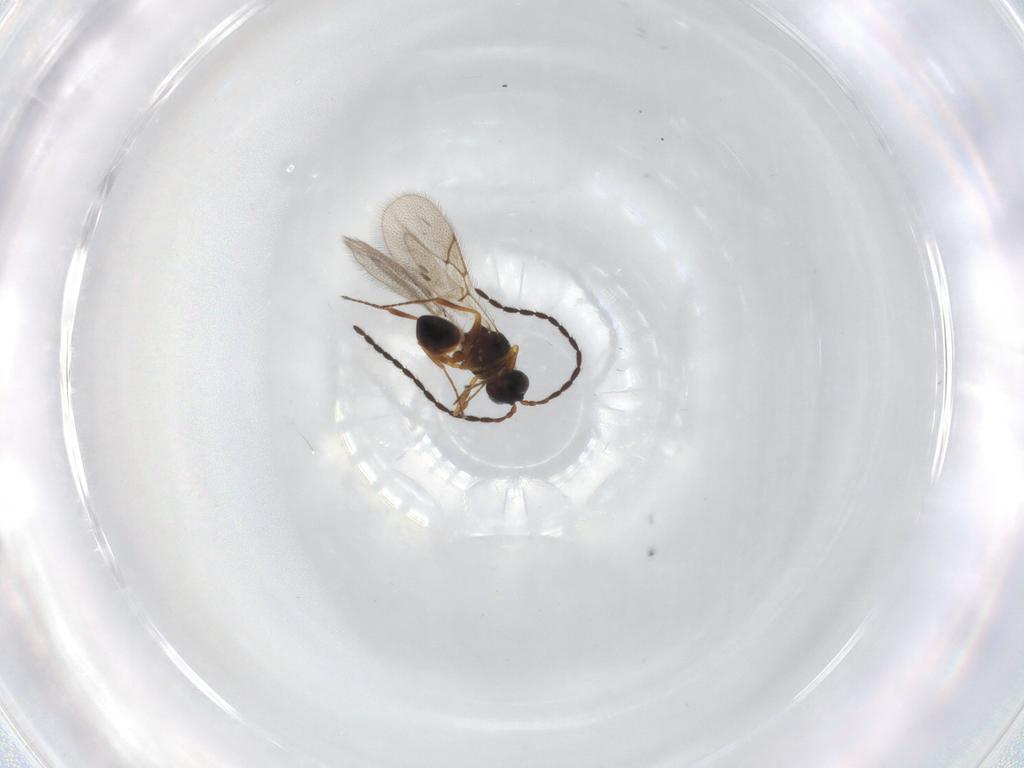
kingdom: Animalia
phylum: Arthropoda
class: Insecta
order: Hymenoptera
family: Figitidae
